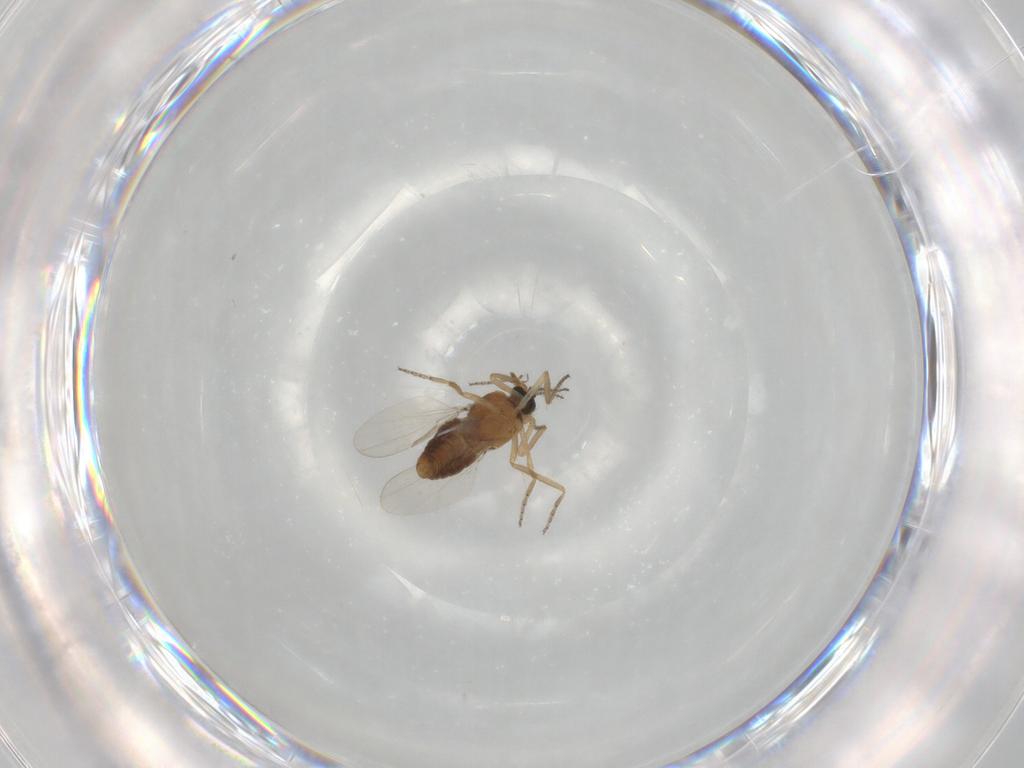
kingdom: Animalia
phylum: Arthropoda
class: Insecta
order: Diptera
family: Ceratopogonidae
